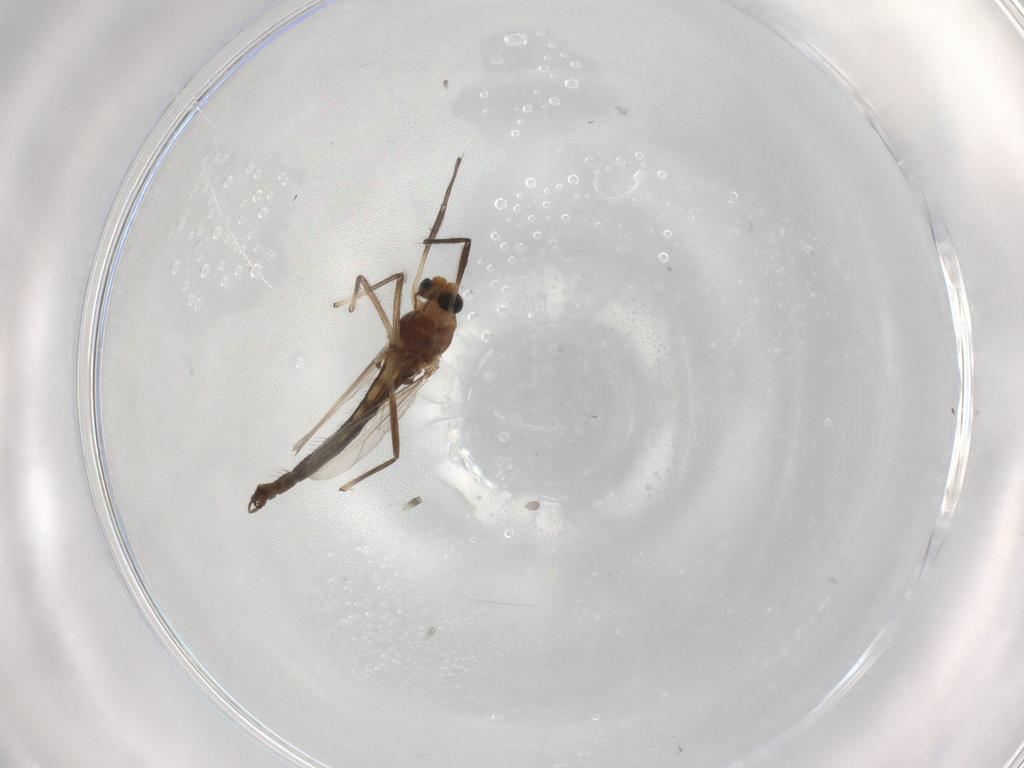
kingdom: Animalia
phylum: Arthropoda
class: Insecta
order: Diptera
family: Chironomidae
